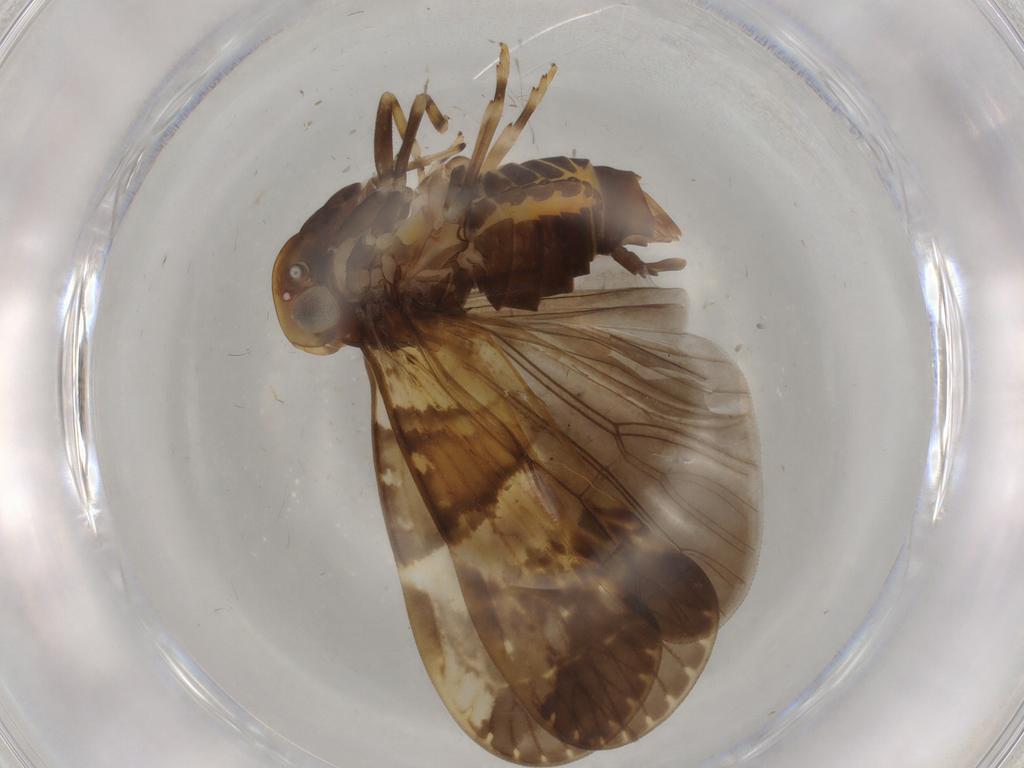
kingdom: Animalia
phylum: Arthropoda
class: Insecta
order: Hemiptera
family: Cixiidae
